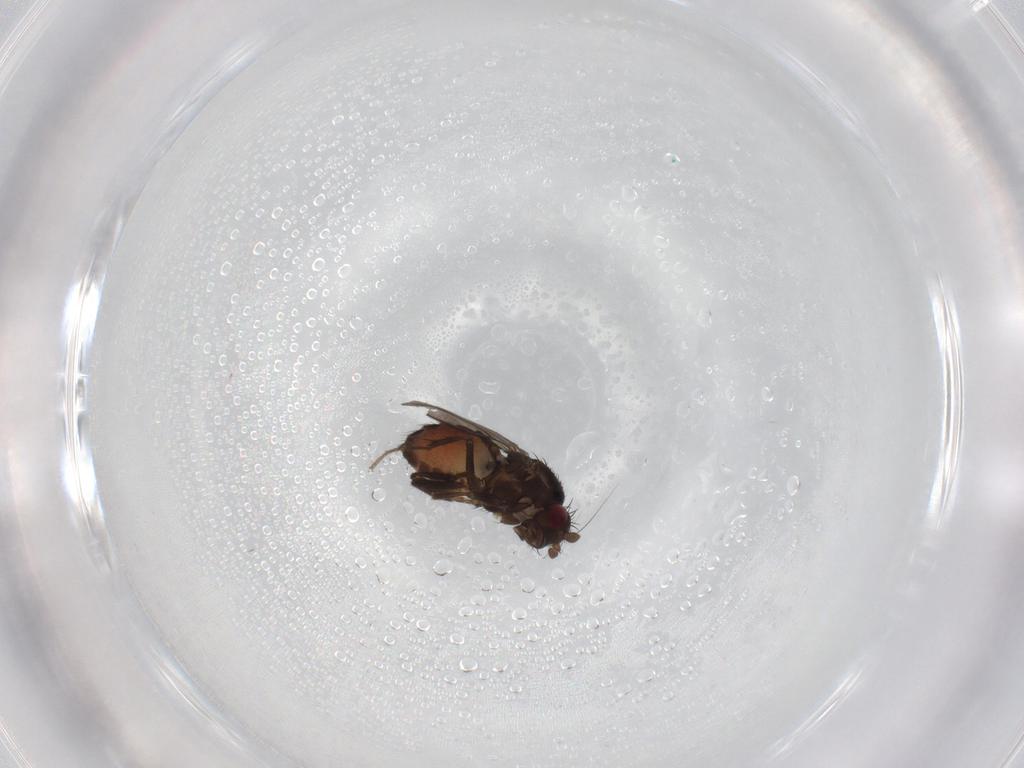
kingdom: Animalia
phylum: Arthropoda
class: Insecta
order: Diptera
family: Sphaeroceridae
